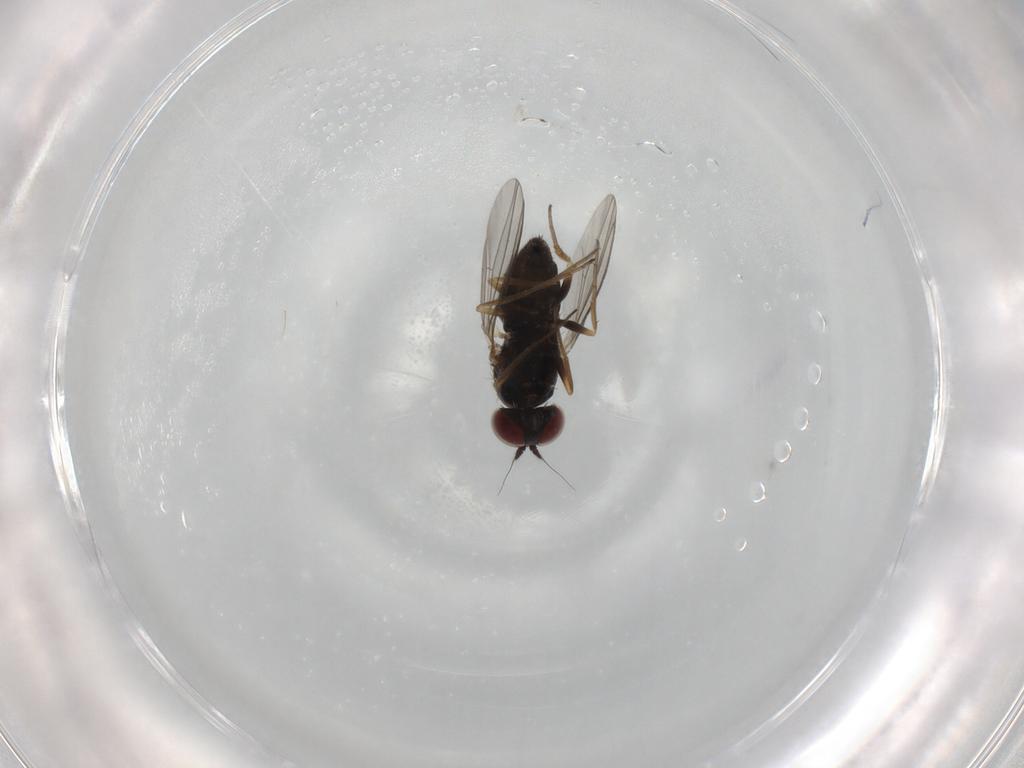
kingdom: Animalia
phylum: Arthropoda
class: Insecta
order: Diptera
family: Dolichopodidae
